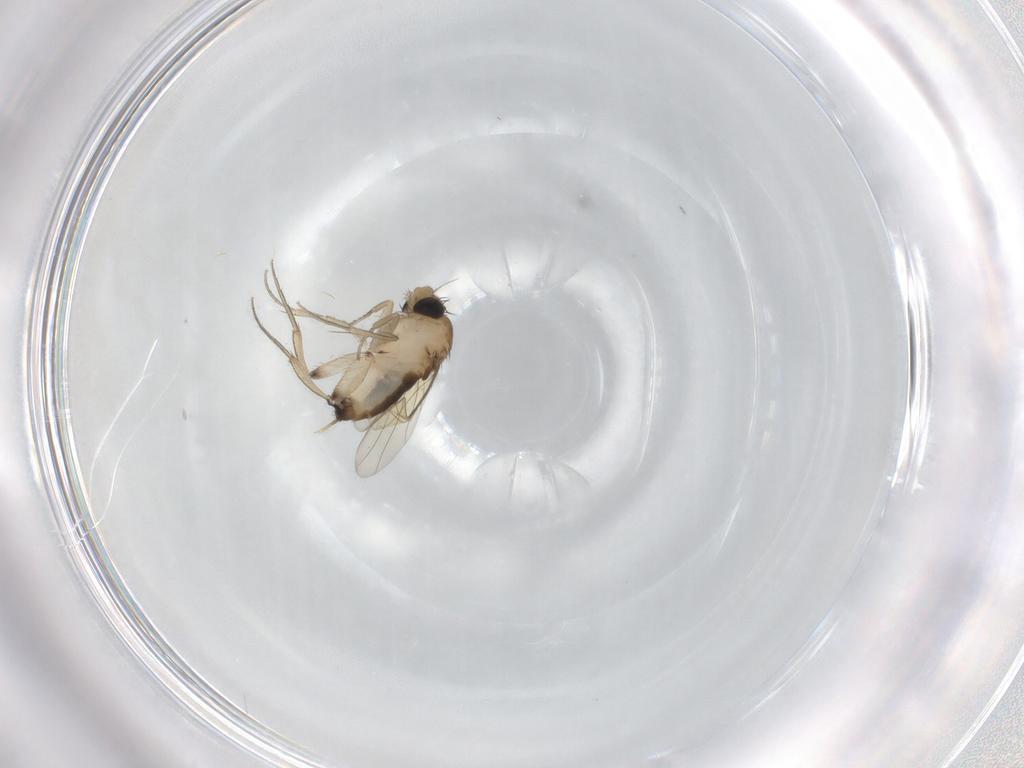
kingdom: Animalia
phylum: Arthropoda
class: Insecta
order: Diptera
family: Phoridae
